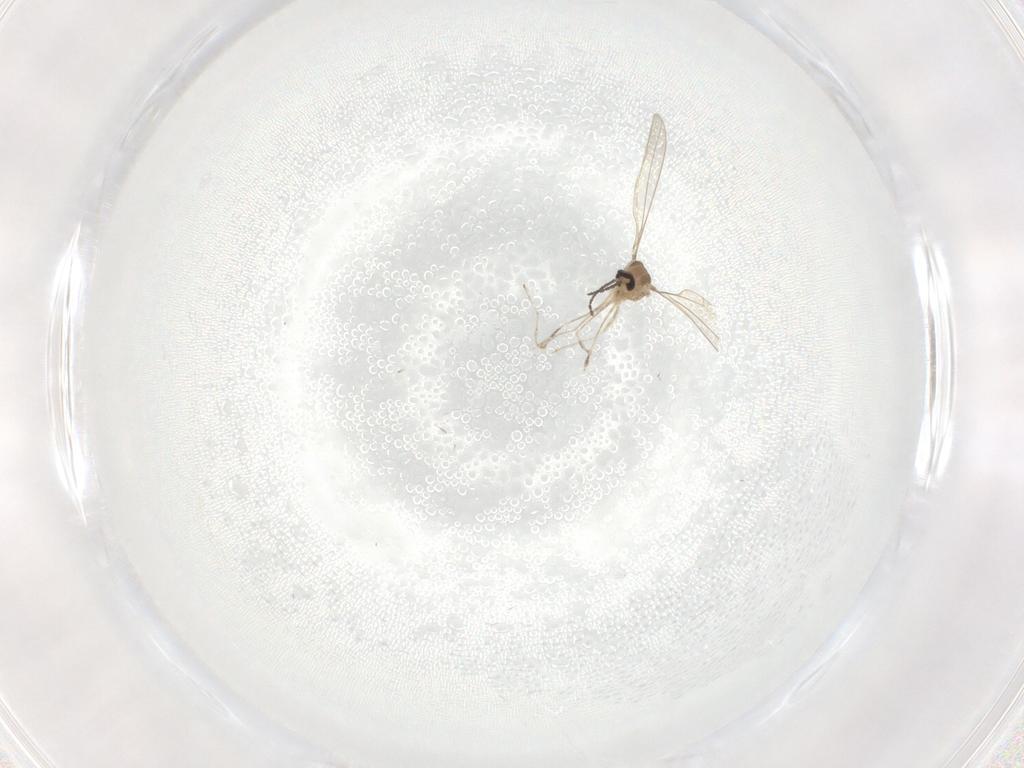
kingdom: Animalia
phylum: Arthropoda
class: Insecta
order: Diptera
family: Cecidomyiidae
